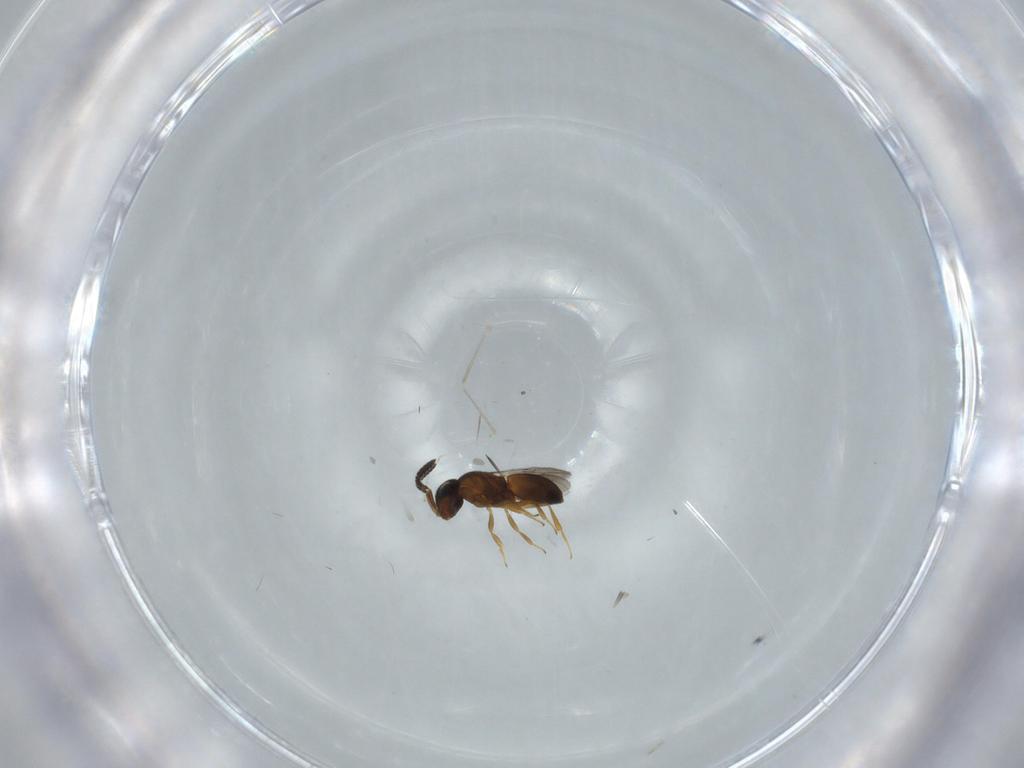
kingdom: Animalia
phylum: Arthropoda
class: Insecta
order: Hymenoptera
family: Scelionidae
